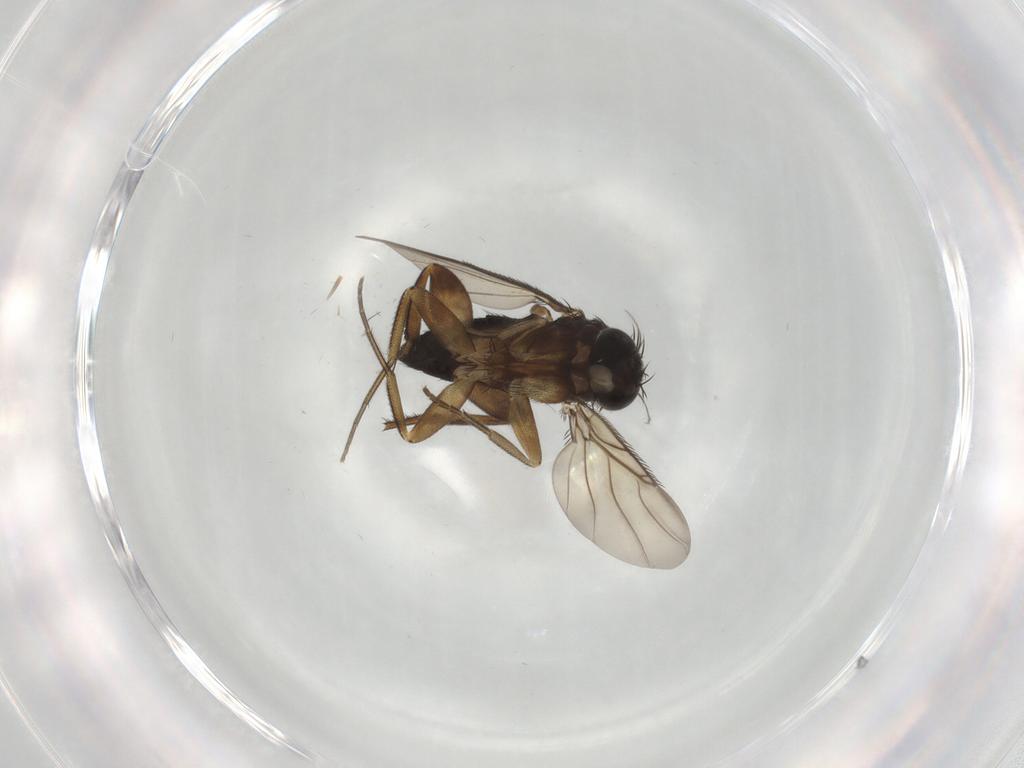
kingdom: Animalia
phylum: Arthropoda
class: Insecta
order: Diptera
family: Phoridae
